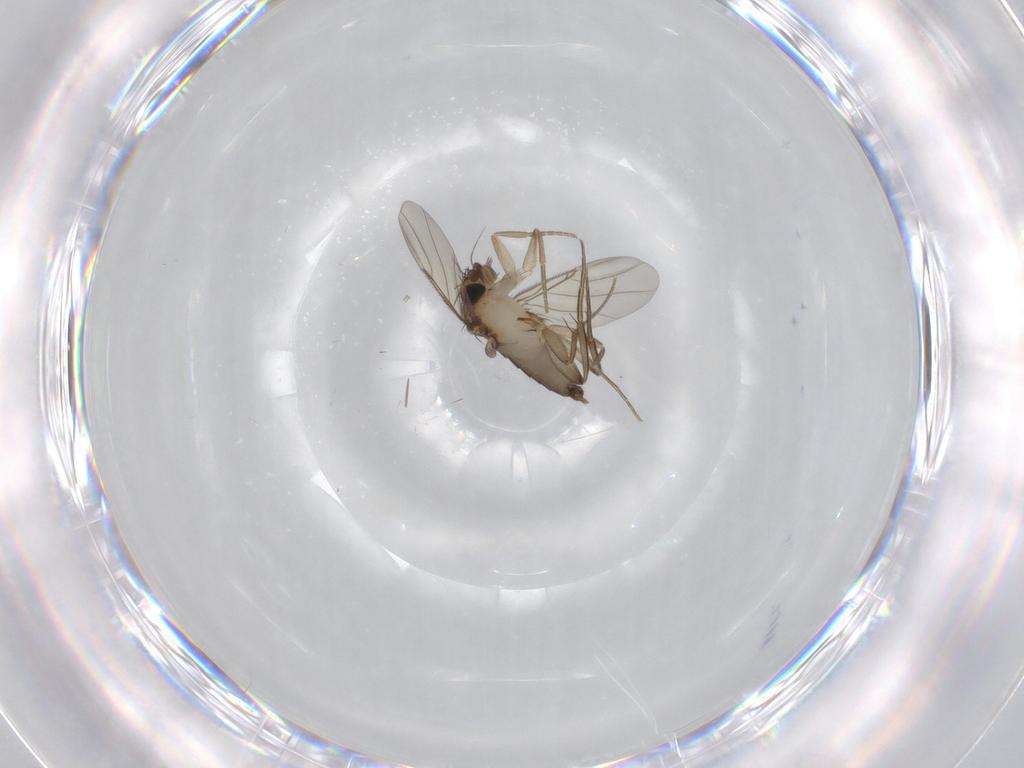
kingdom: Animalia
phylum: Arthropoda
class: Insecta
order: Diptera
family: Phoridae
